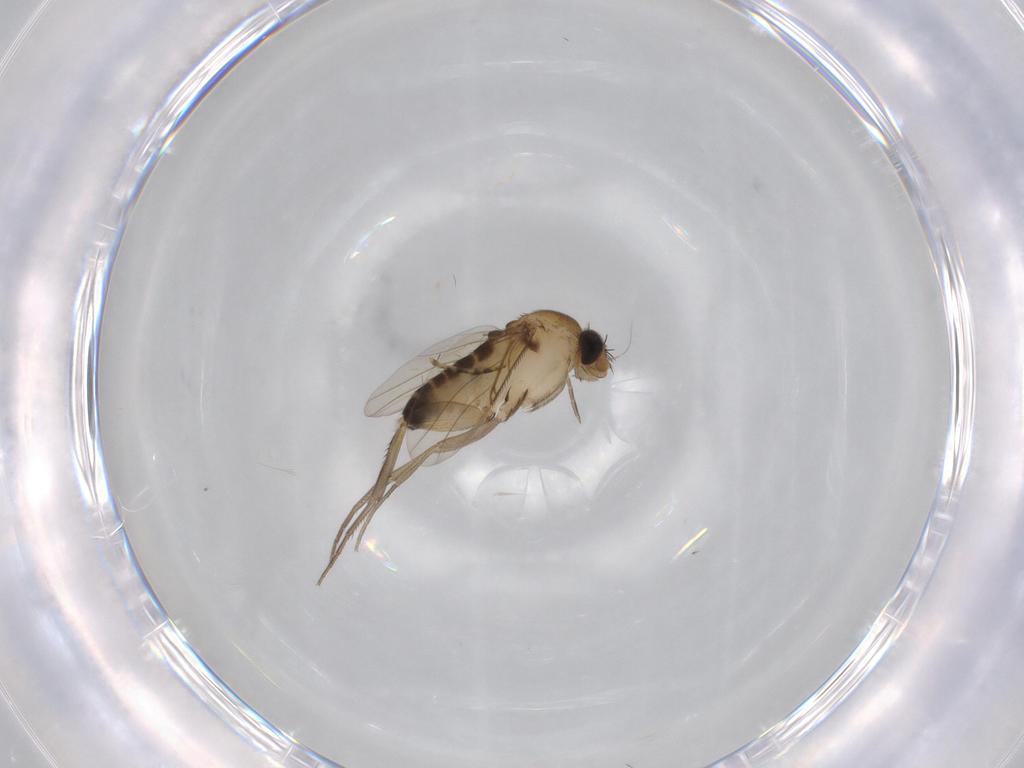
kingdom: Animalia
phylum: Arthropoda
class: Insecta
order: Diptera
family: Phoridae
